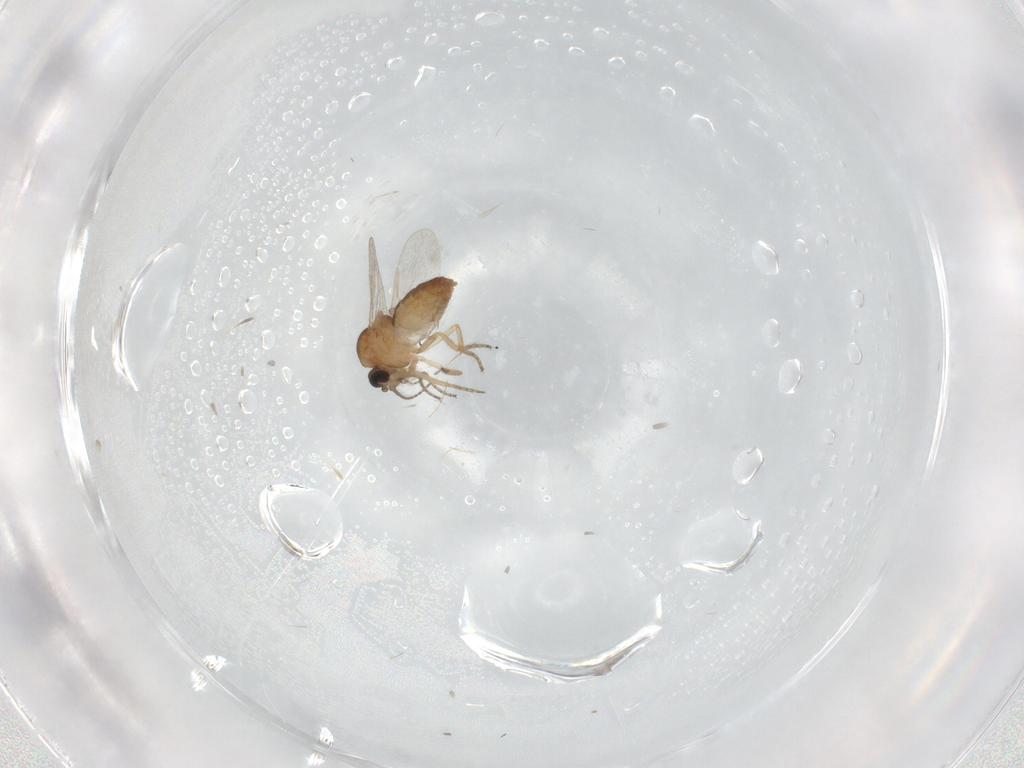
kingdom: Animalia
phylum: Arthropoda
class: Insecta
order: Diptera
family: Ceratopogonidae
